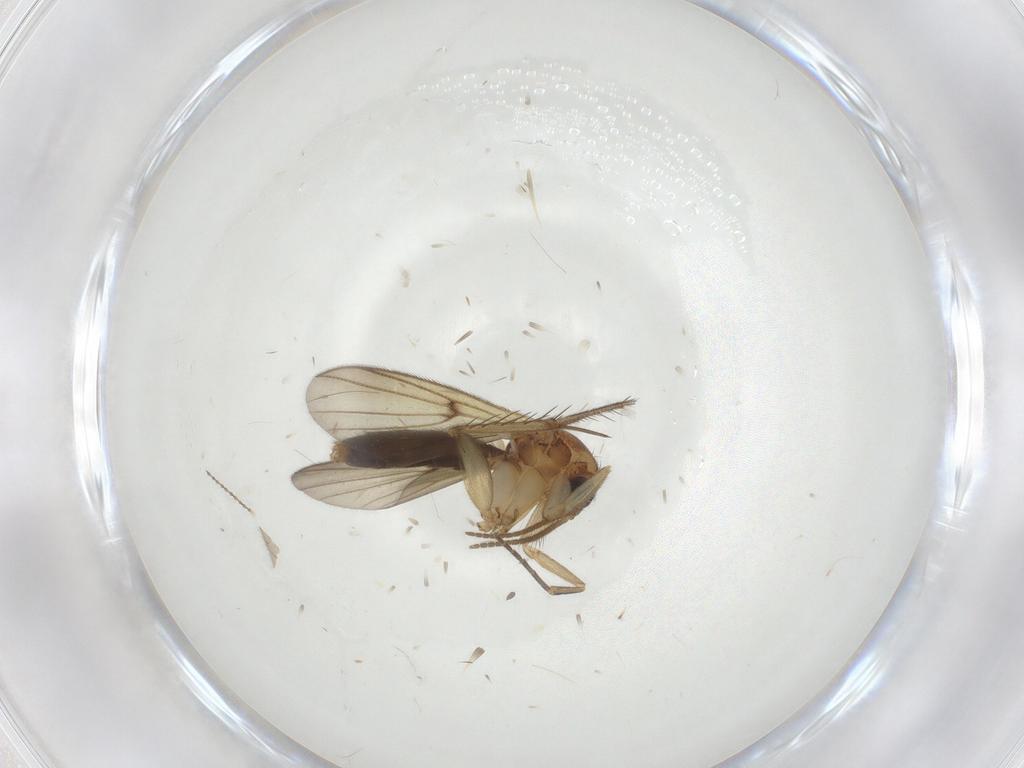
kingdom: Animalia
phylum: Arthropoda
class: Insecta
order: Diptera
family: Mycetophilidae
